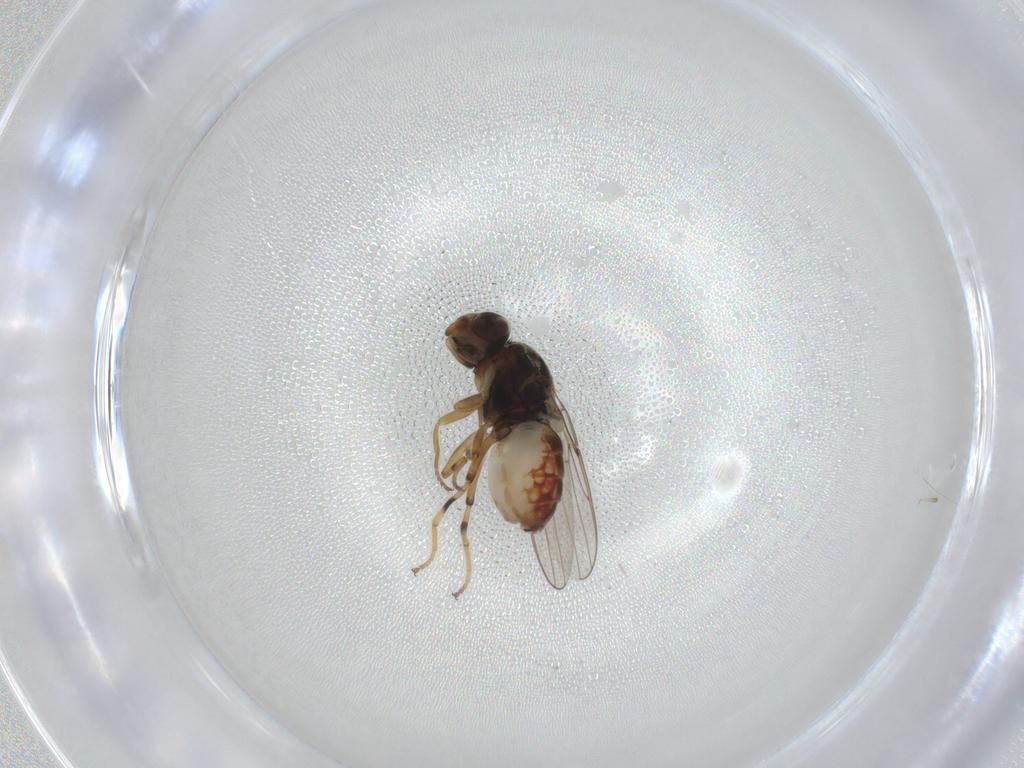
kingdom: Animalia
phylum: Arthropoda
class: Insecta
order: Diptera
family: Chloropidae
